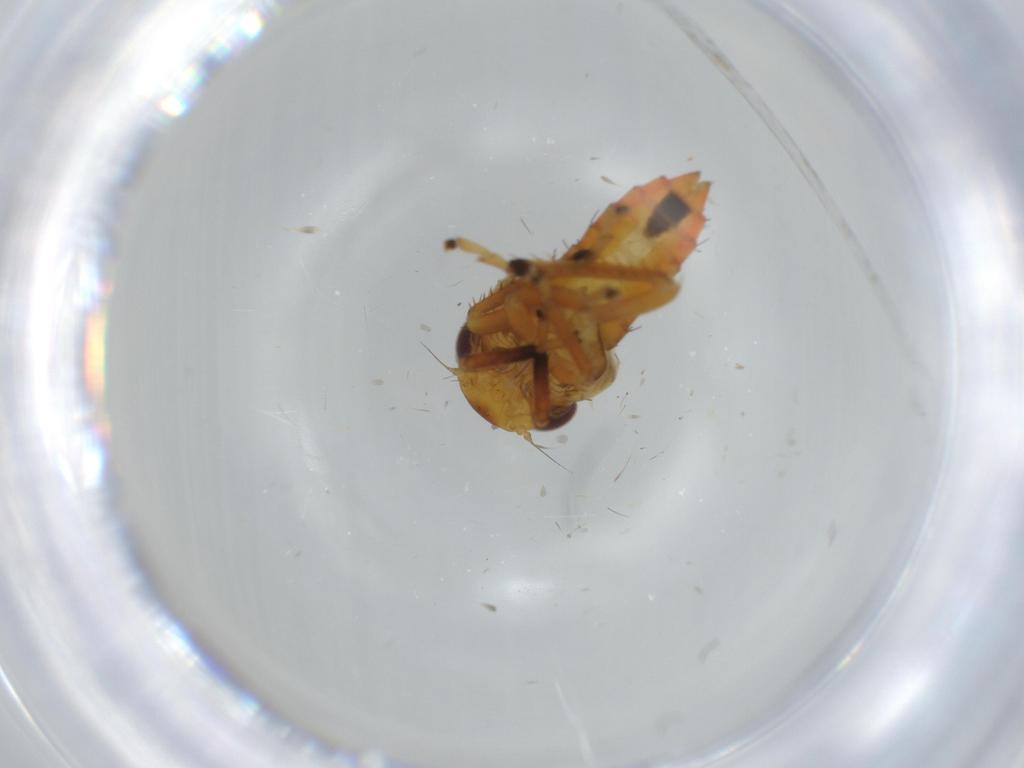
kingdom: Animalia
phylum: Arthropoda
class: Insecta
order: Hemiptera
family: Cicadellidae
